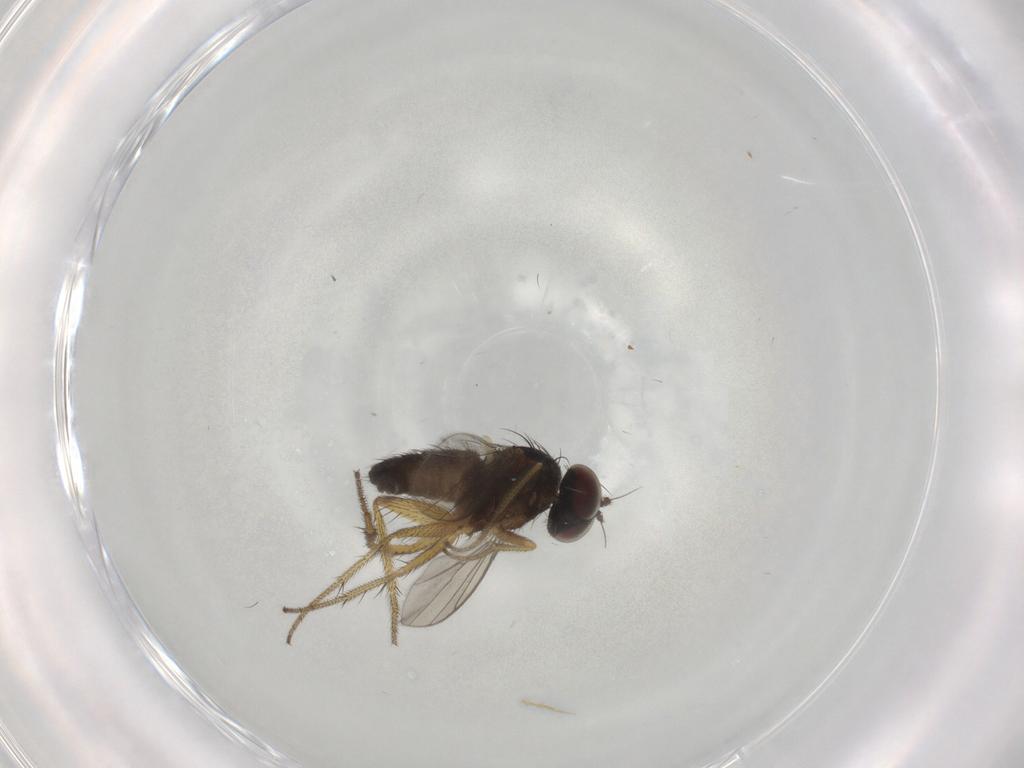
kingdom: Animalia
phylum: Arthropoda
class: Insecta
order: Diptera
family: Dolichopodidae
